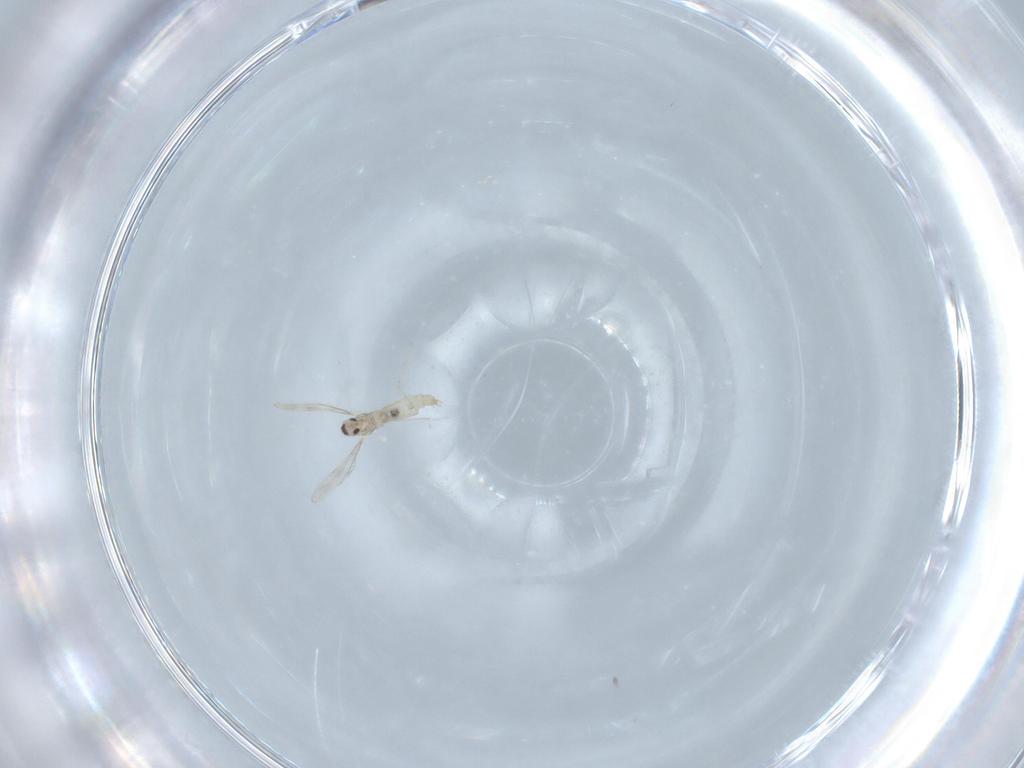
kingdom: Animalia
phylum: Arthropoda
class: Insecta
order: Diptera
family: Cecidomyiidae
